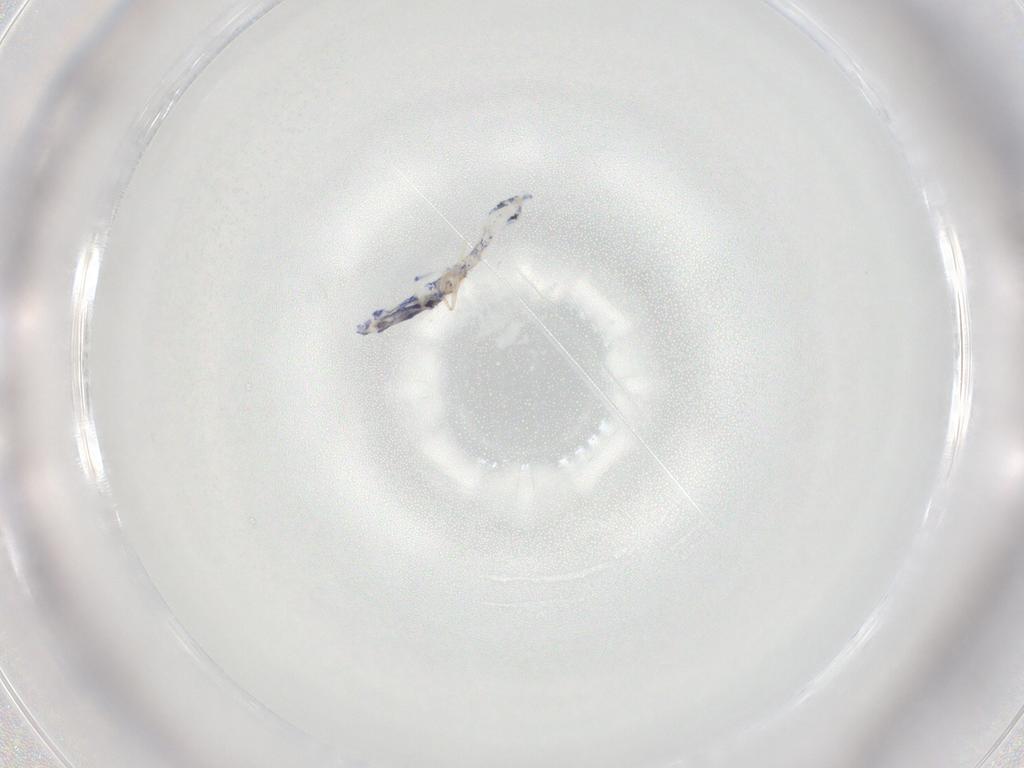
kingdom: Animalia
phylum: Arthropoda
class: Collembola
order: Entomobryomorpha
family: Entomobryidae
